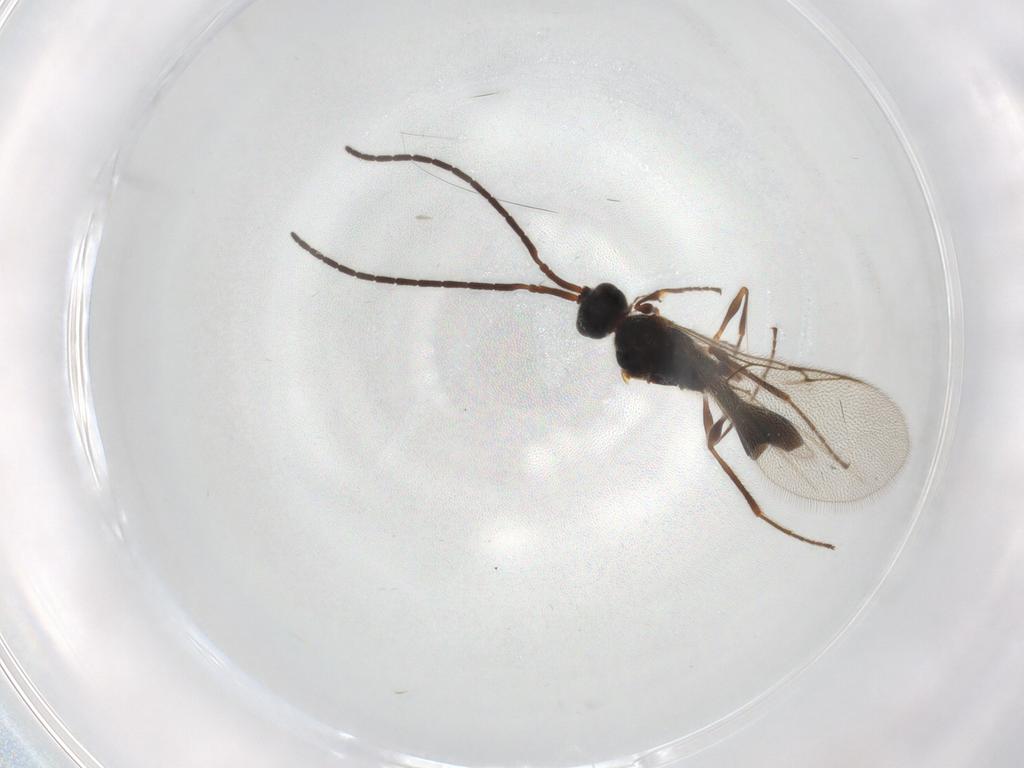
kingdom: Animalia
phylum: Arthropoda
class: Insecta
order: Hymenoptera
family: Diapriidae
